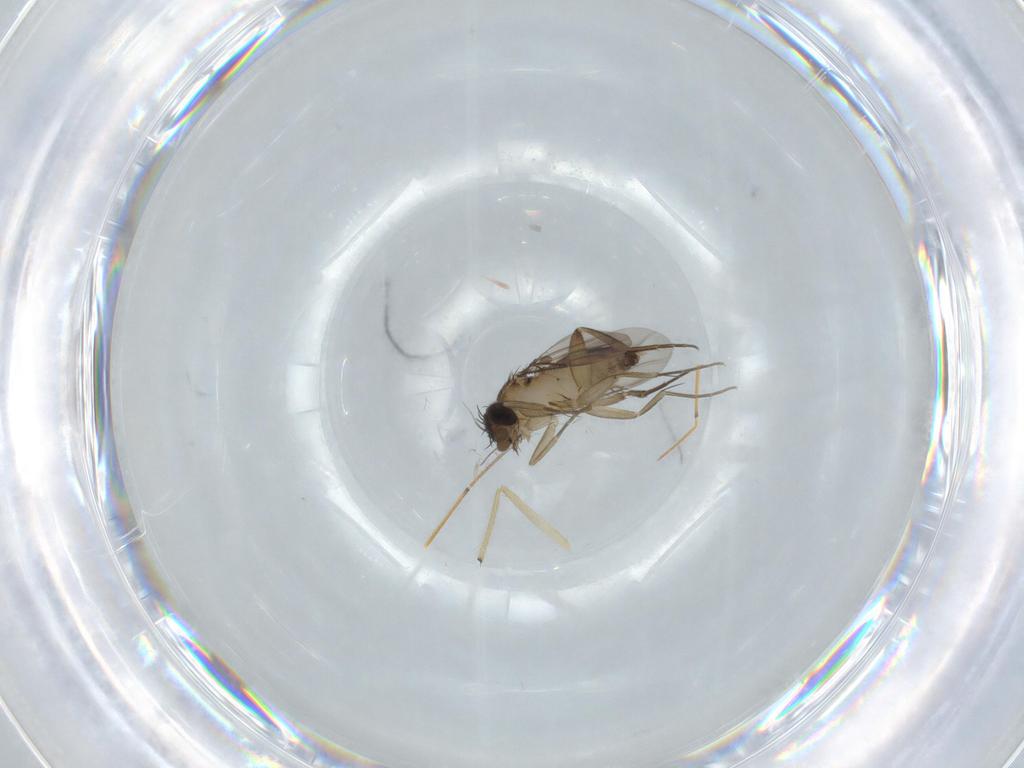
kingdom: Animalia
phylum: Arthropoda
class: Insecta
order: Diptera
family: Phoridae
